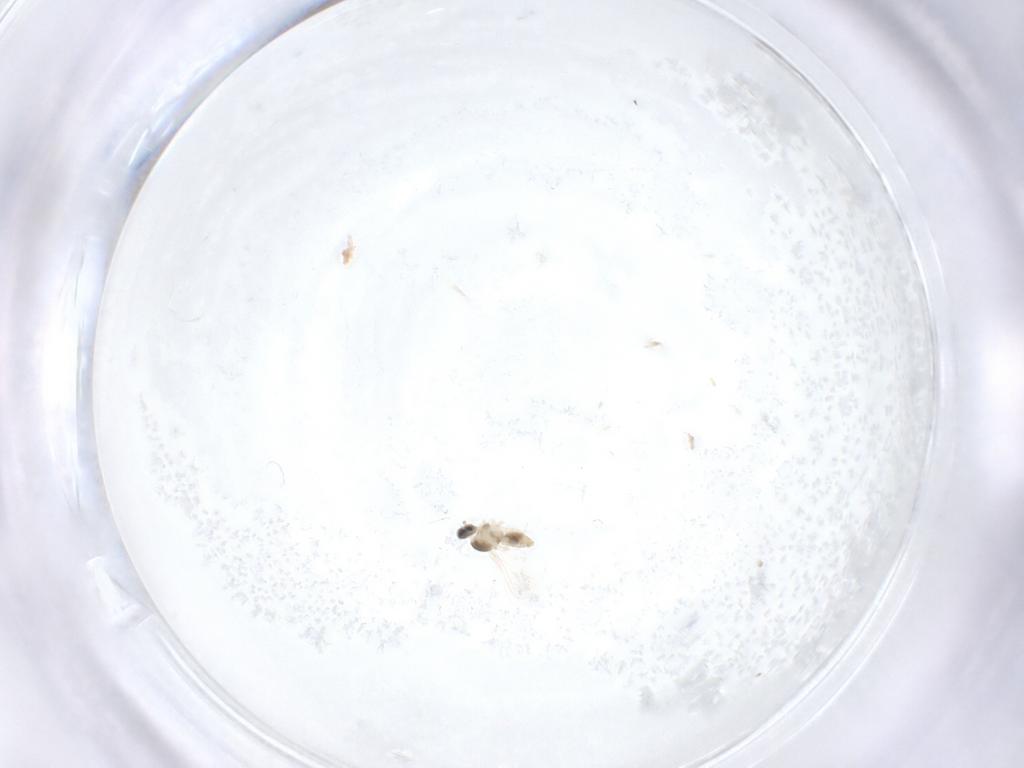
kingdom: Animalia
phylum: Arthropoda
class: Insecta
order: Diptera
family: Cecidomyiidae
